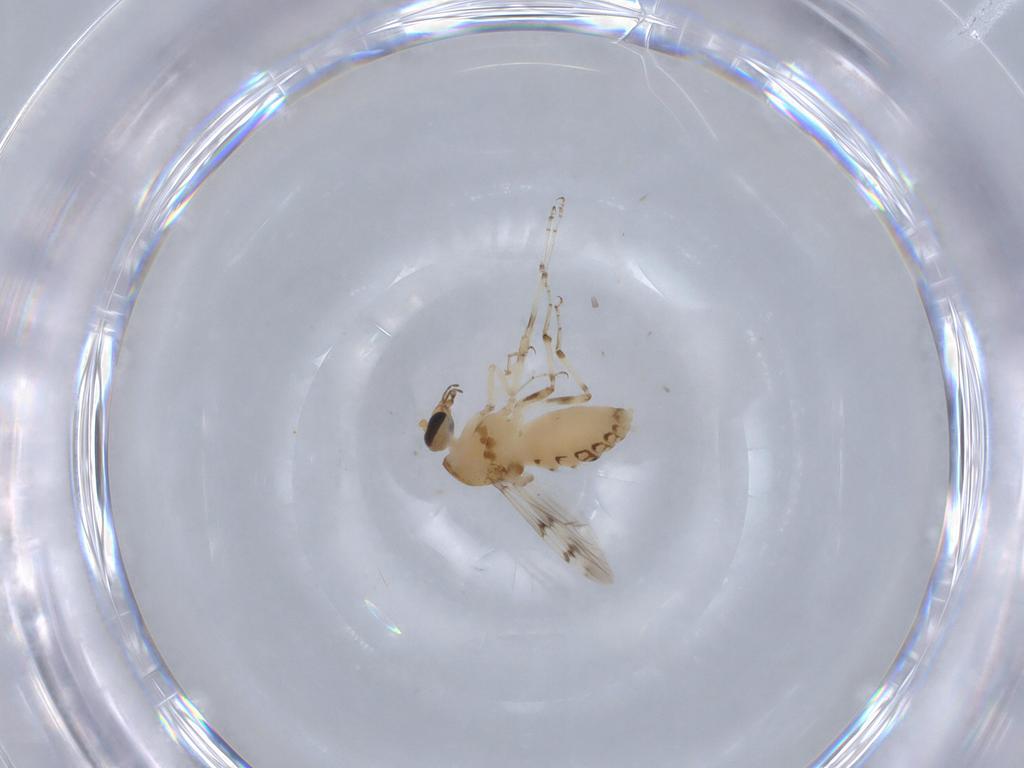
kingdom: Animalia
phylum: Arthropoda
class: Insecta
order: Diptera
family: Ceratopogonidae
